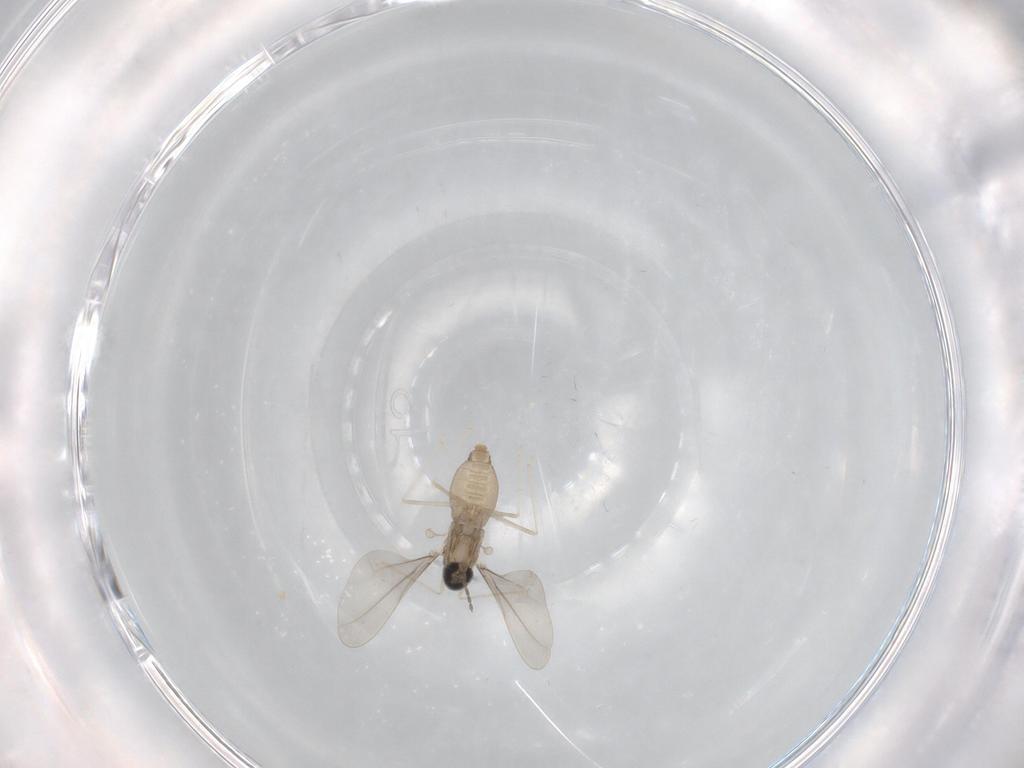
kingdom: Animalia
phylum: Arthropoda
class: Insecta
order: Diptera
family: Cecidomyiidae
